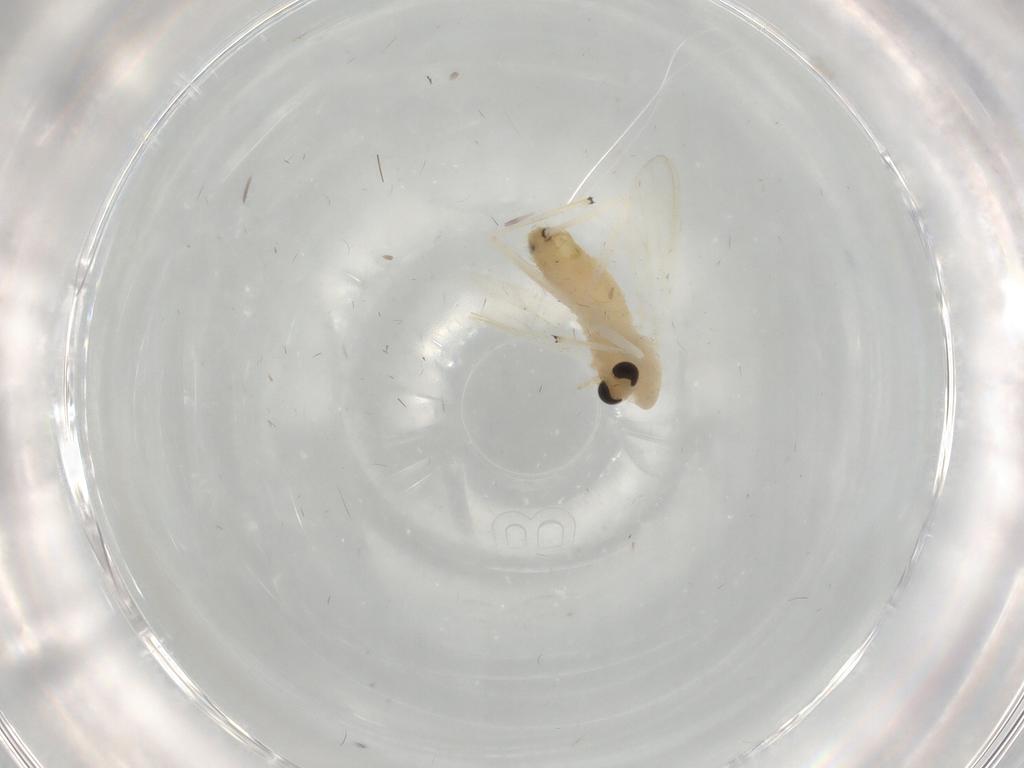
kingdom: Animalia
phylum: Arthropoda
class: Insecta
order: Diptera
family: Chironomidae
